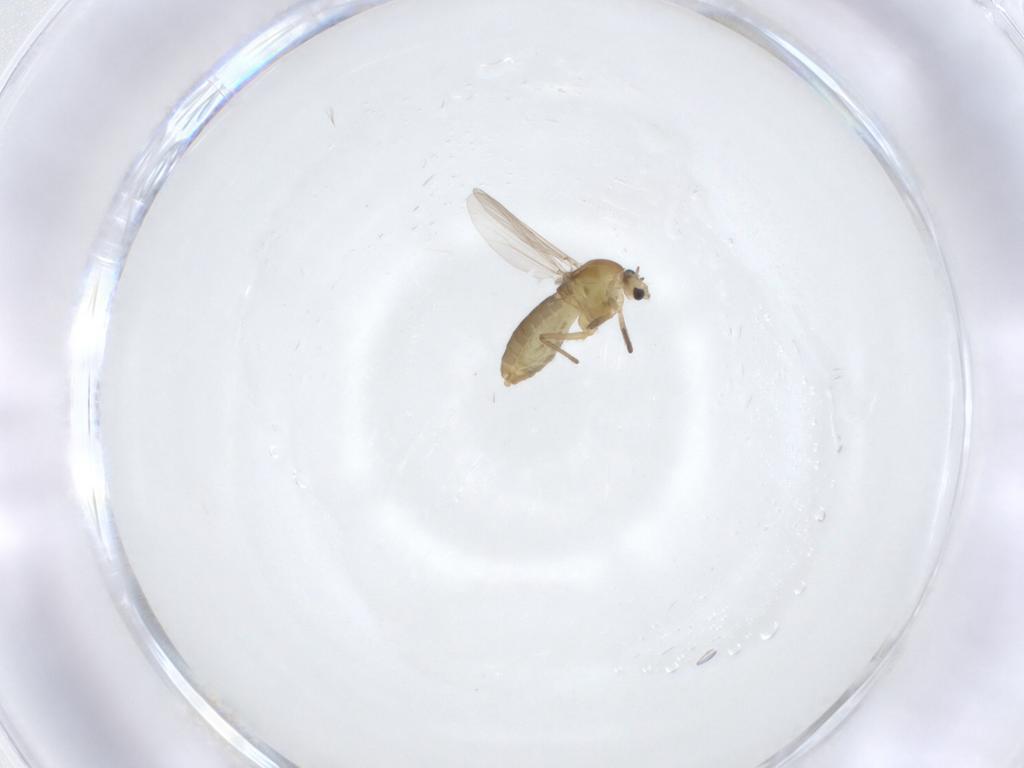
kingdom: Animalia
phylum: Arthropoda
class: Insecta
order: Diptera
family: Chironomidae
